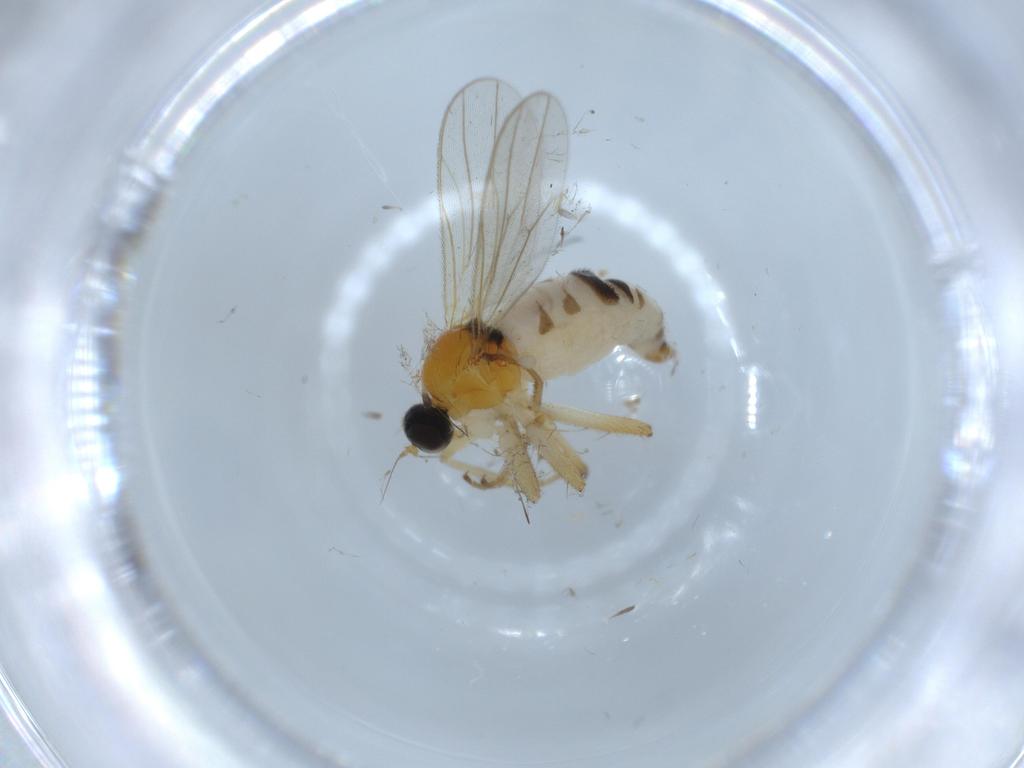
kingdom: Animalia
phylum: Arthropoda
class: Insecta
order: Diptera
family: Hybotidae
